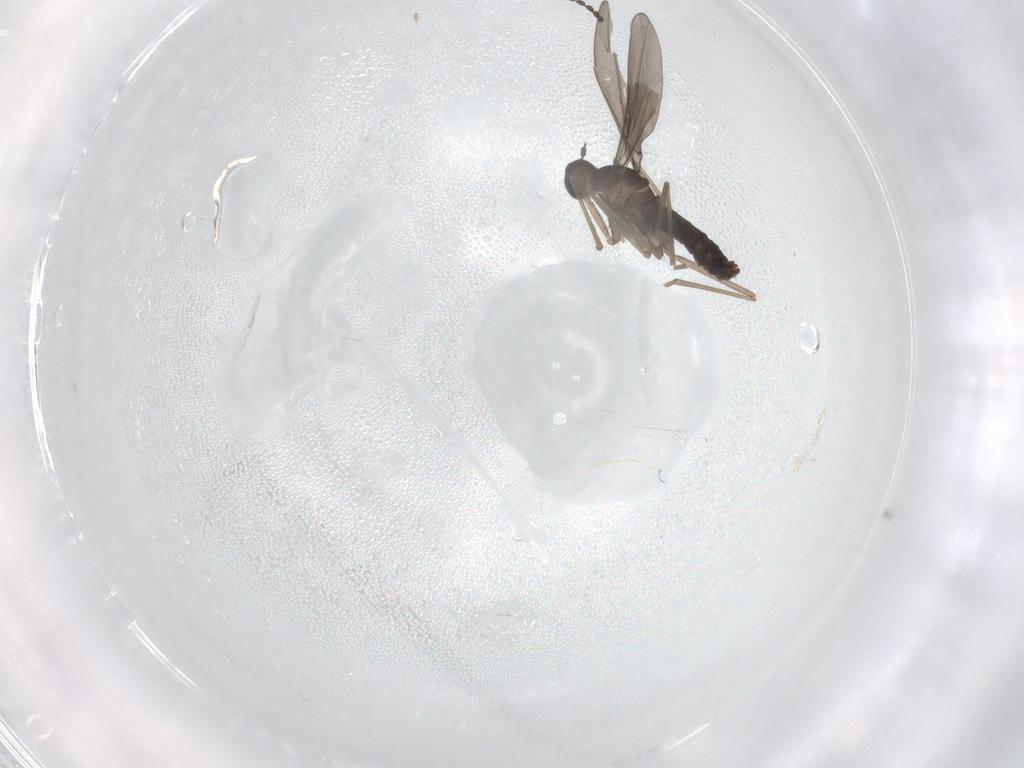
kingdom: Animalia
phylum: Arthropoda
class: Insecta
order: Diptera
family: Cecidomyiidae
